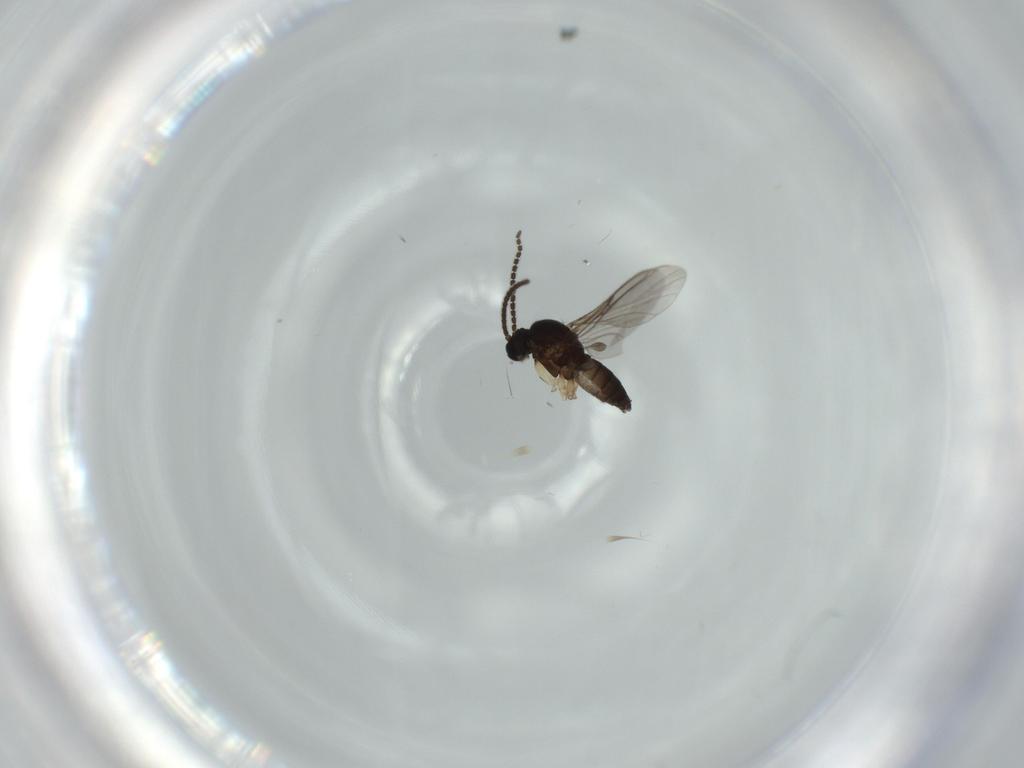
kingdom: Animalia
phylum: Arthropoda
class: Insecta
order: Diptera
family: Sciaridae
